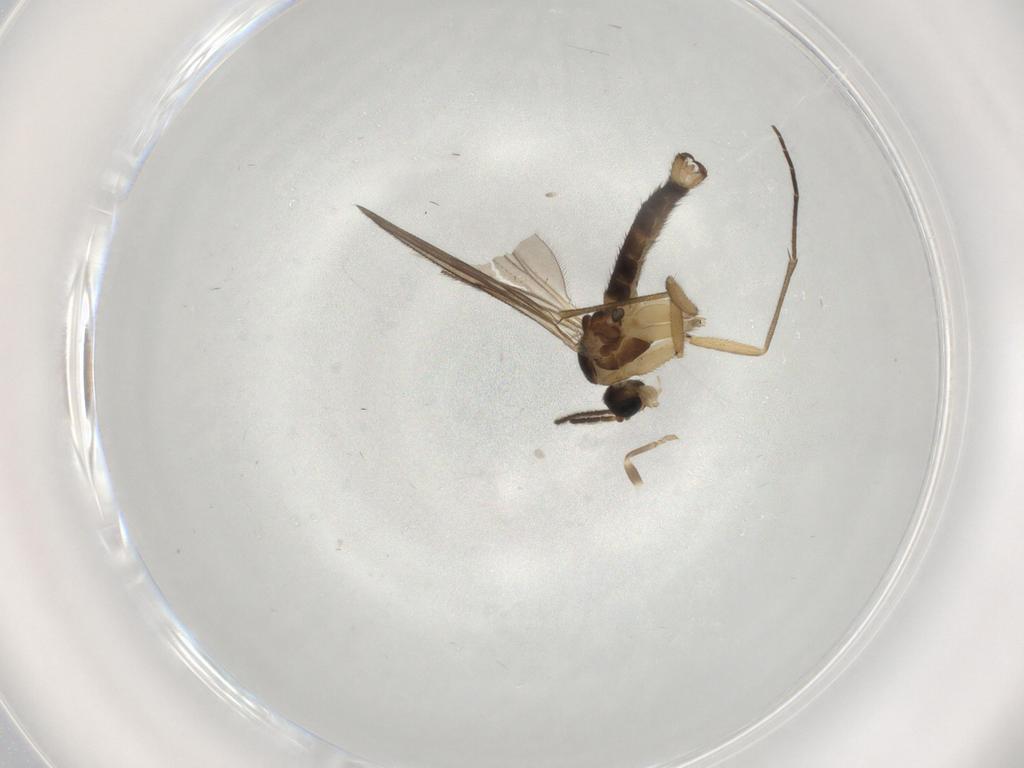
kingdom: Animalia
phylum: Arthropoda
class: Insecta
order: Diptera
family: Sciaridae
